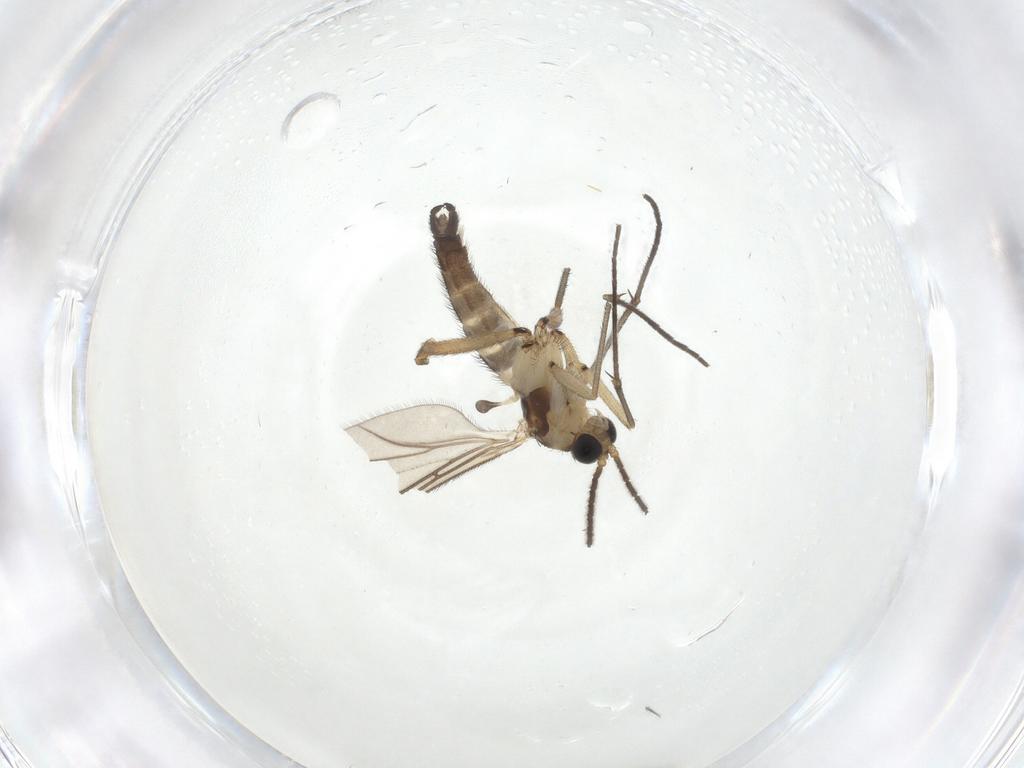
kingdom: Animalia
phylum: Arthropoda
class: Insecta
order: Diptera
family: Sciaridae
